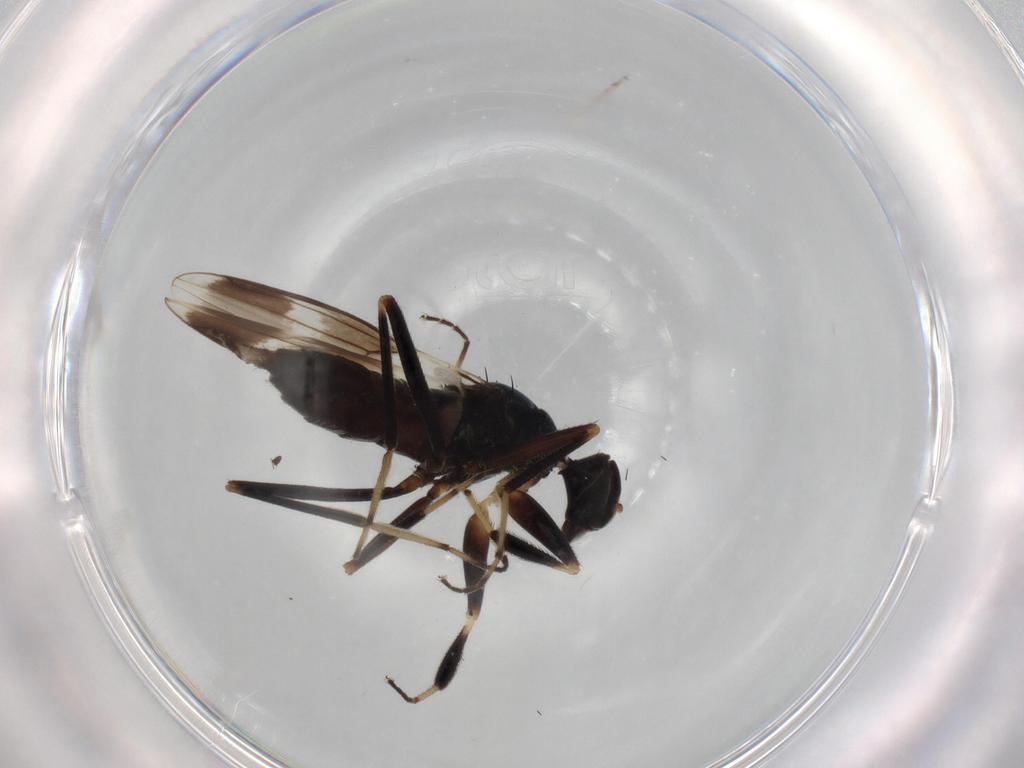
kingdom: Animalia
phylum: Arthropoda
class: Insecta
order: Diptera
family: Hybotidae
